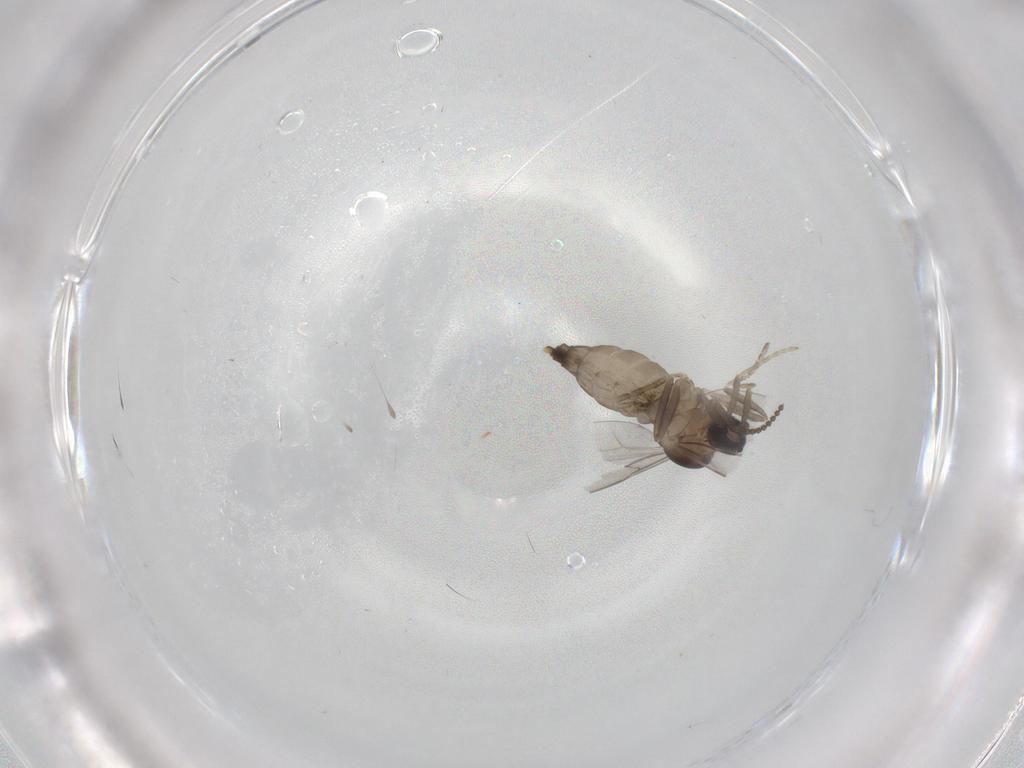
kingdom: Animalia
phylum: Arthropoda
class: Insecta
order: Diptera
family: Cecidomyiidae
